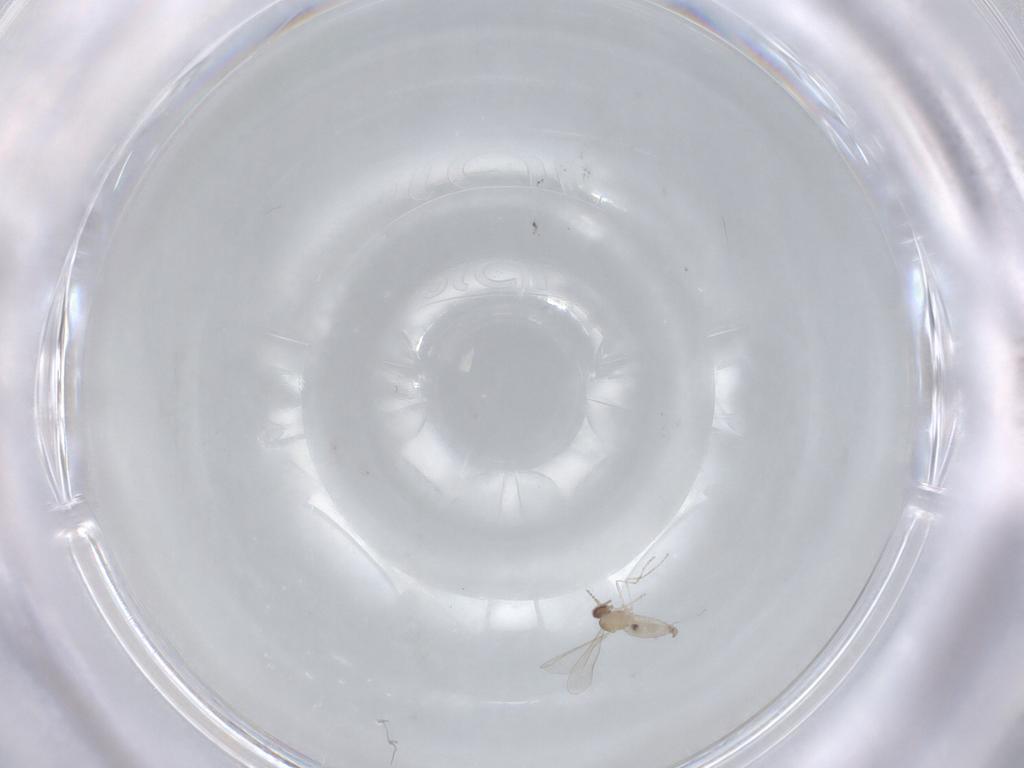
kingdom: Animalia
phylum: Arthropoda
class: Insecta
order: Diptera
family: Cecidomyiidae
